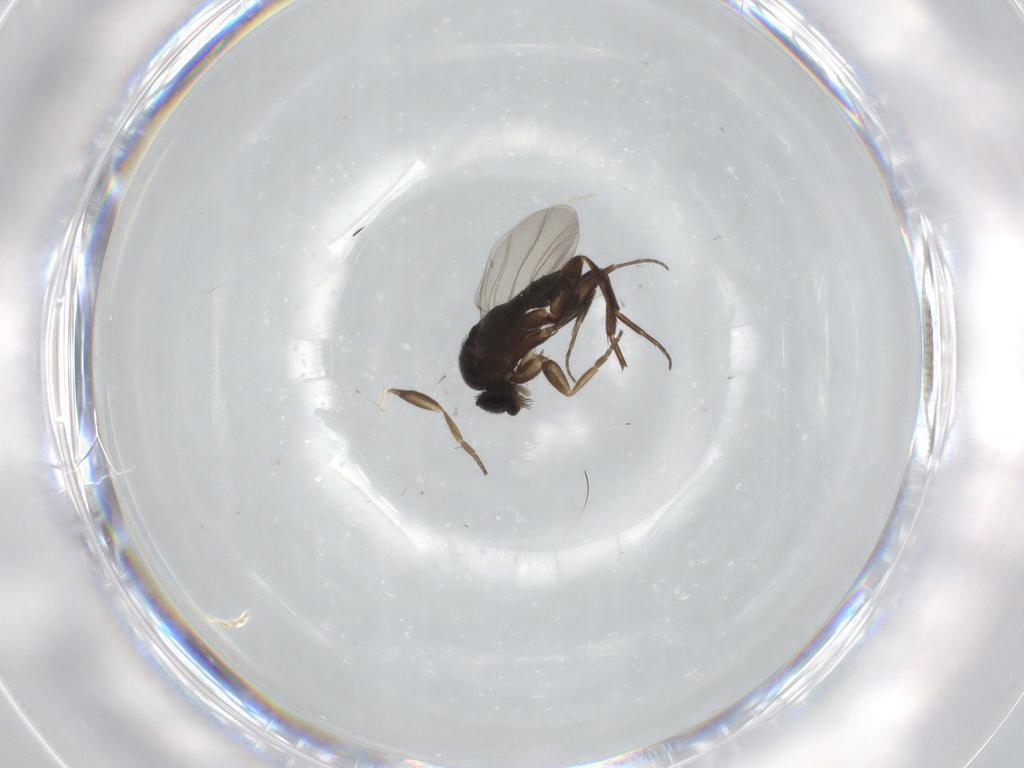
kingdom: Animalia
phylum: Arthropoda
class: Insecta
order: Diptera
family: Phoridae
